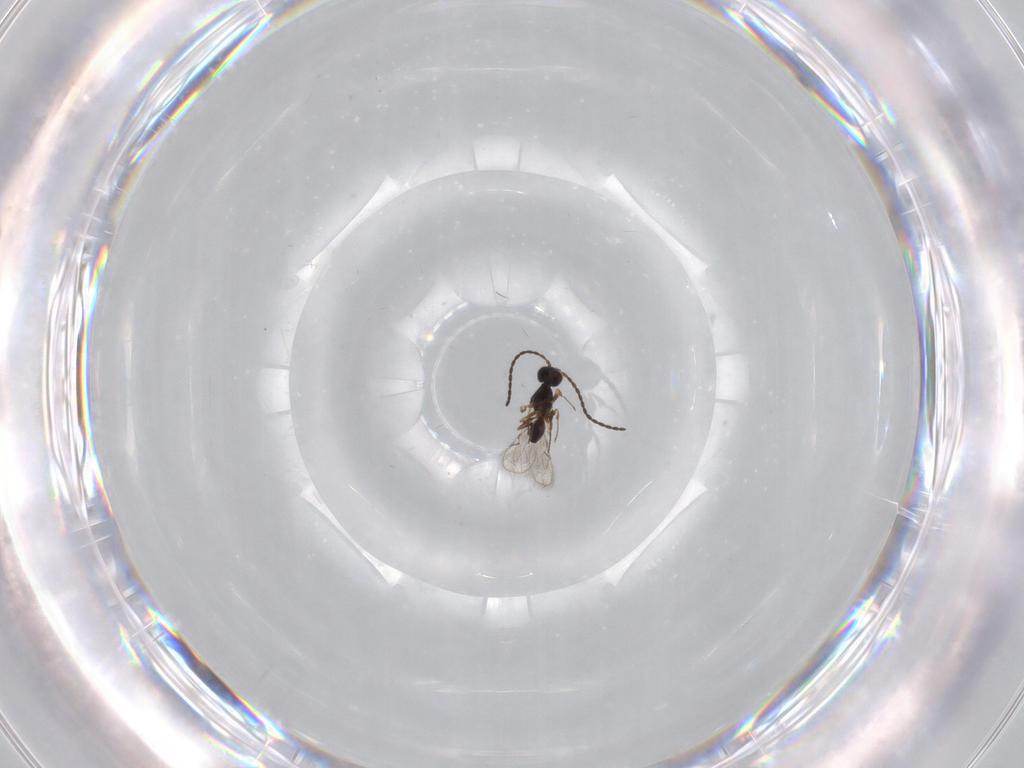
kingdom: Animalia
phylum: Arthropoda
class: Insecta
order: Hymenoptera
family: Diapriidae
